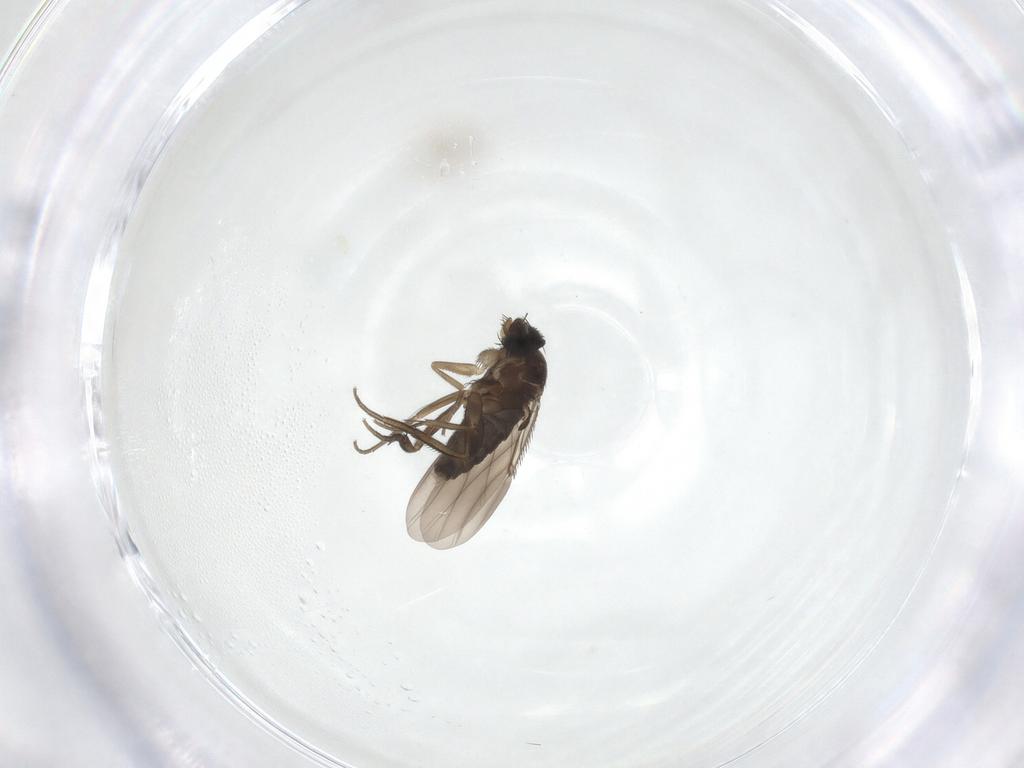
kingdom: Animalia
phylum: Arthropoda
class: Insecta
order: Diptera
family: Phoridae
